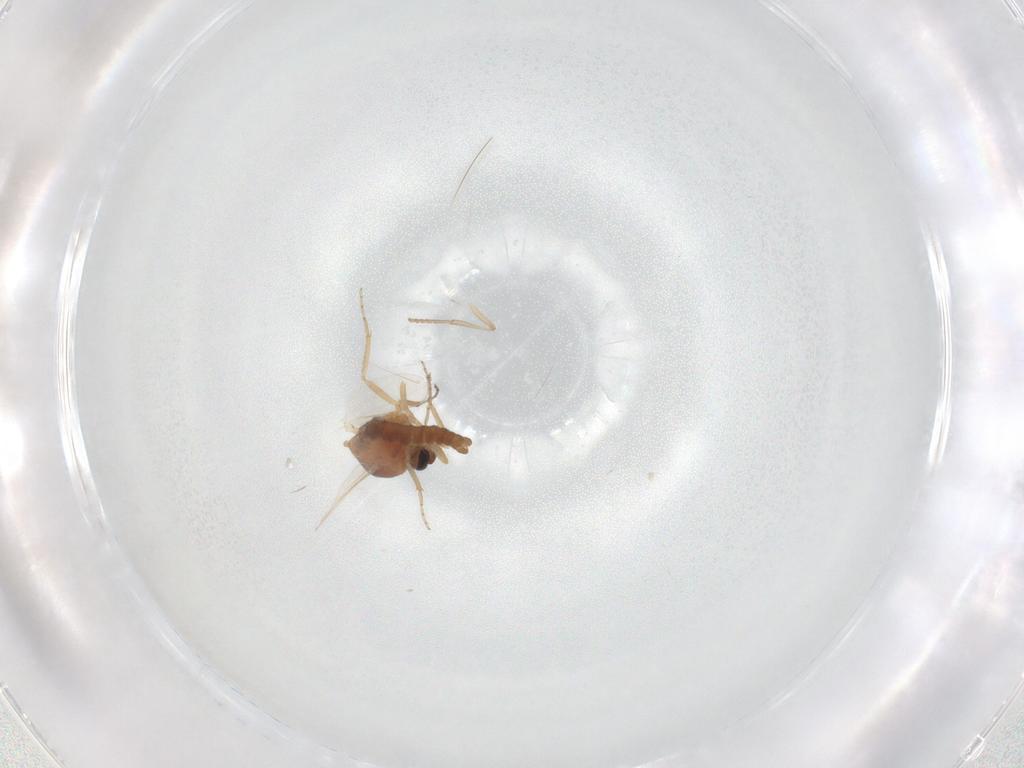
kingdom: Animalia
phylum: Arthropoda
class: Insecta
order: Diptera
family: Ceratopogonidae
